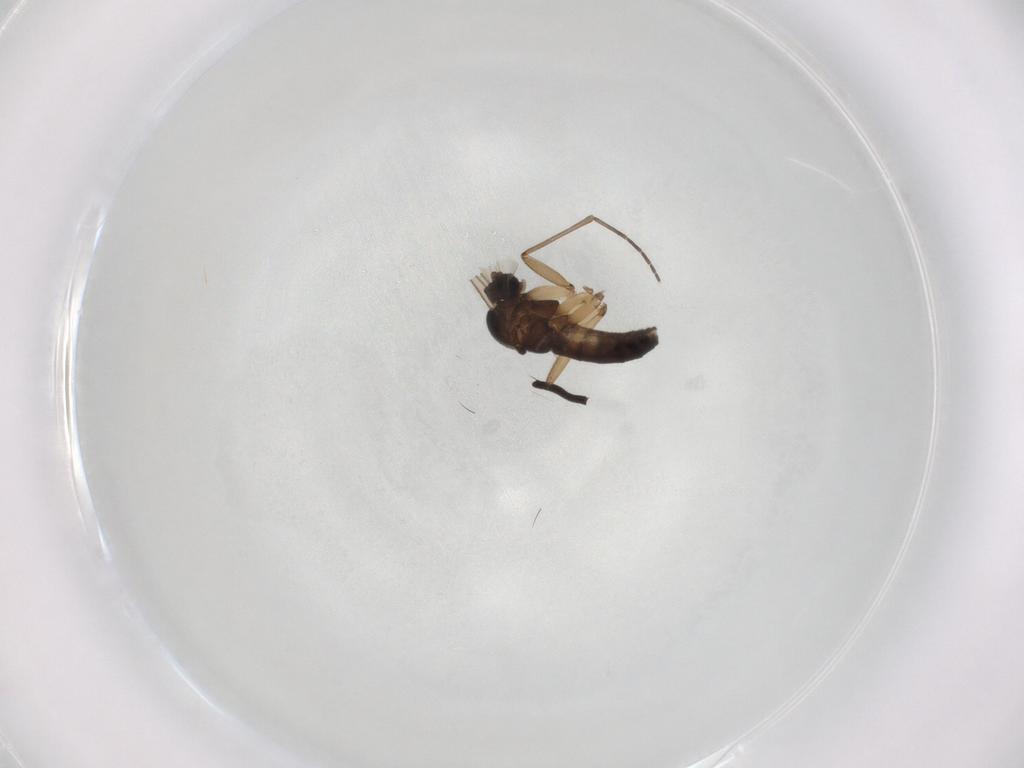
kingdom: Animalia
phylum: Arthropoda
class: Insecta
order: Diptera
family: Sciaridae
